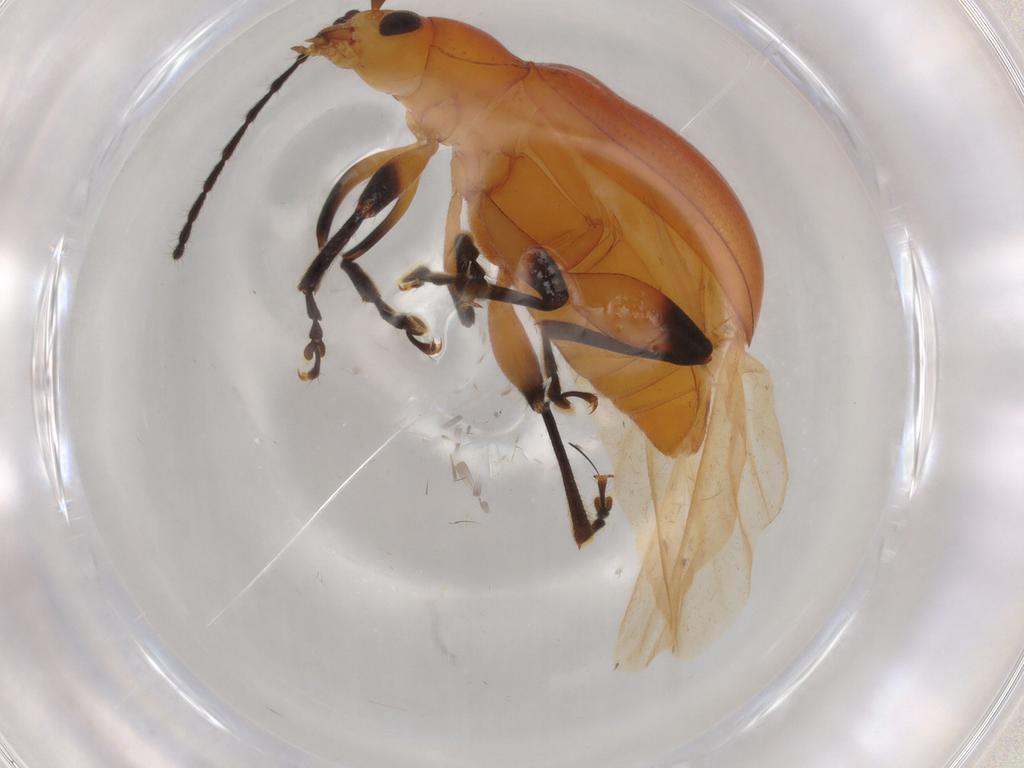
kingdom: Animalia
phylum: Arthropoda
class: Insecta
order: Coleoptera
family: Chrysomelidae
